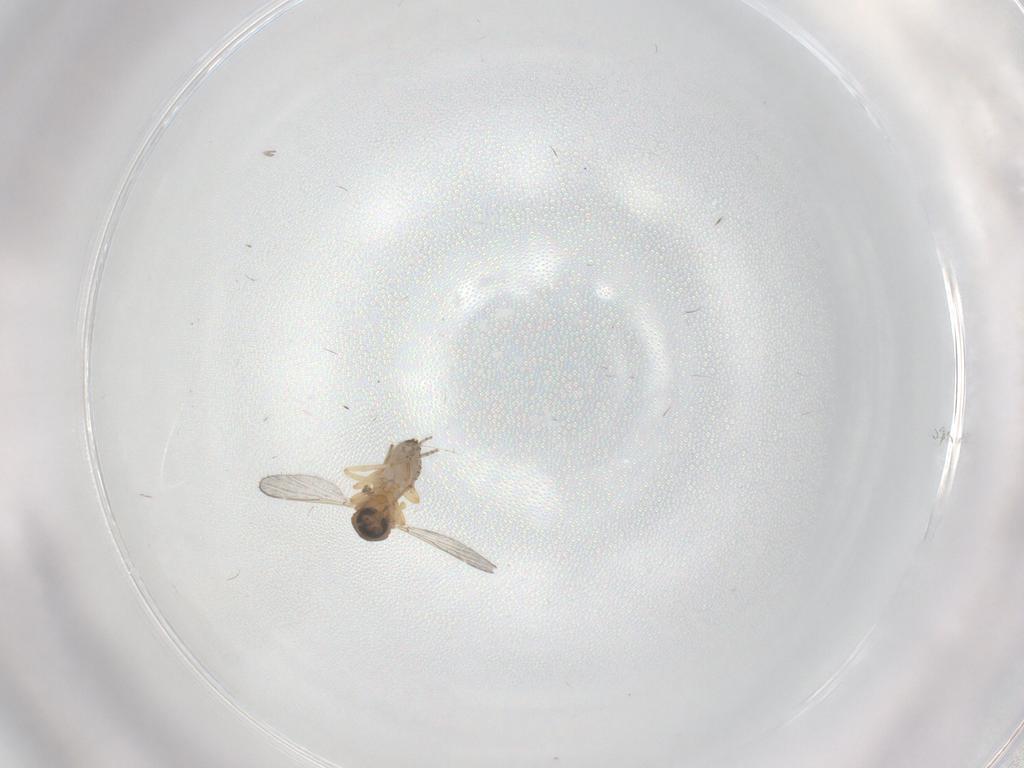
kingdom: Animalia
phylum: Arthropoda
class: Insecta
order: Diptera
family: Ceratopogonidae
